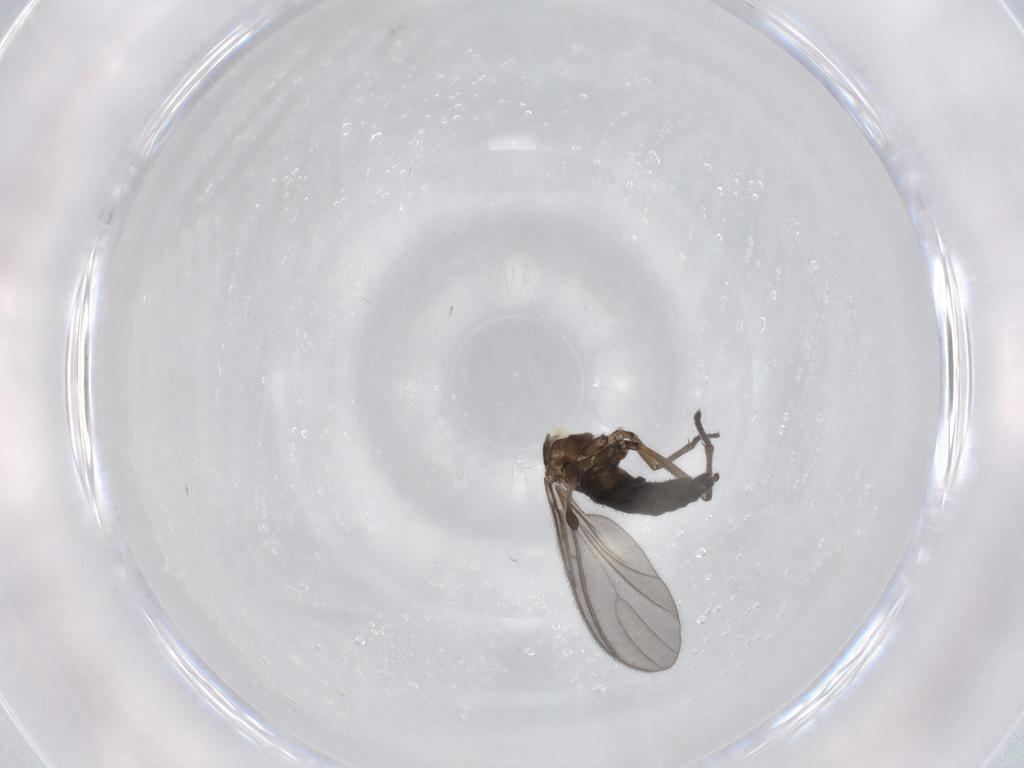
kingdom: Animalia
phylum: Arthropoda
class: Insecta
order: Diptera
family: Sciaridae
